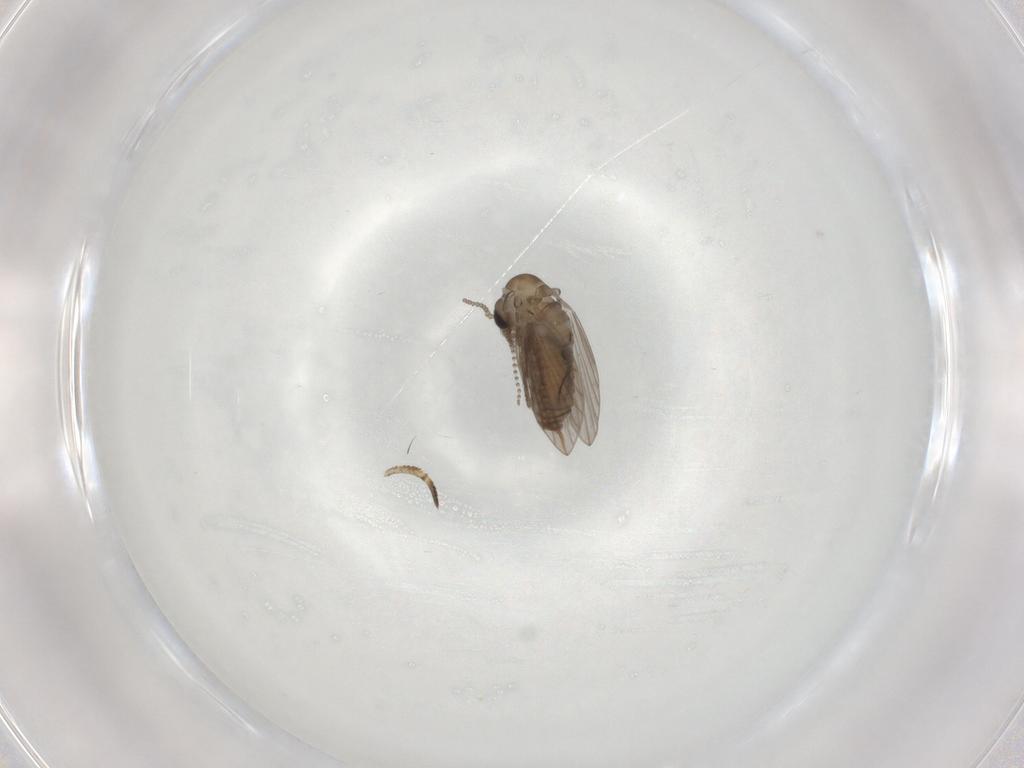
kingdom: Animalia
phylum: Arthropoda
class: Insecta
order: Diptera
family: Psychodidae
